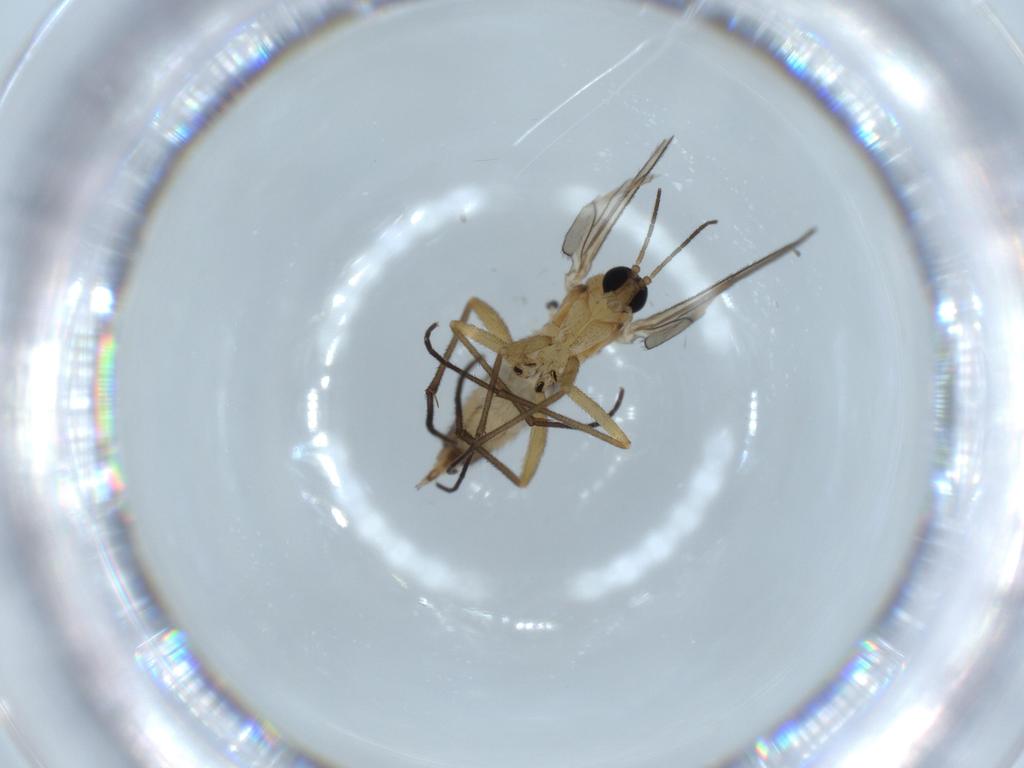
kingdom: Animalia
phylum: Arthropoda
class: Insecta
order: Diptera
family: Sciaridae
